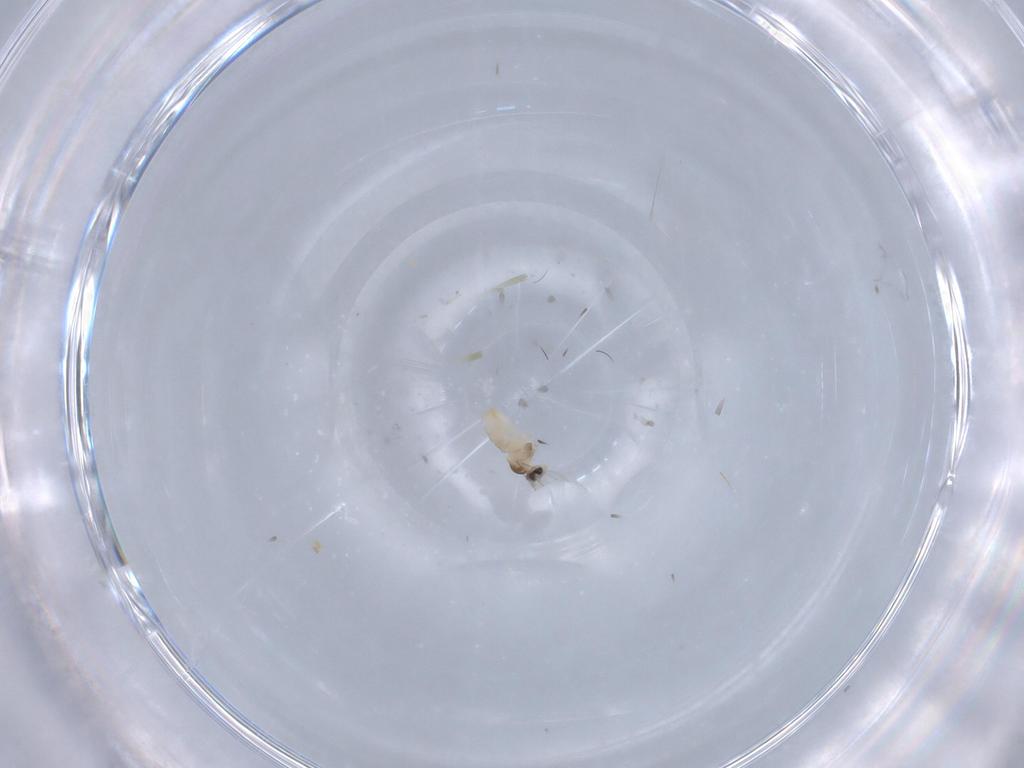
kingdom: Animalia
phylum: Arthropoda
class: Insecta
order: Diptera
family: Cecidomyiidae
